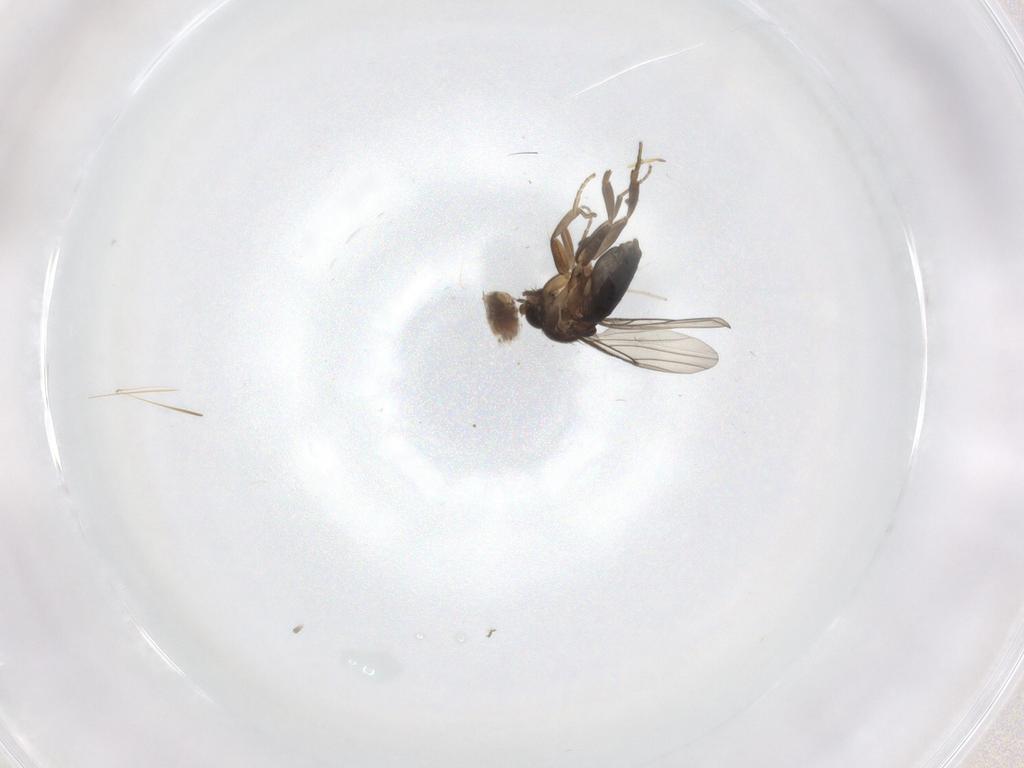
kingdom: Animalia
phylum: Arthropoda
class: Insecta
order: Diptera
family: Phoridae
